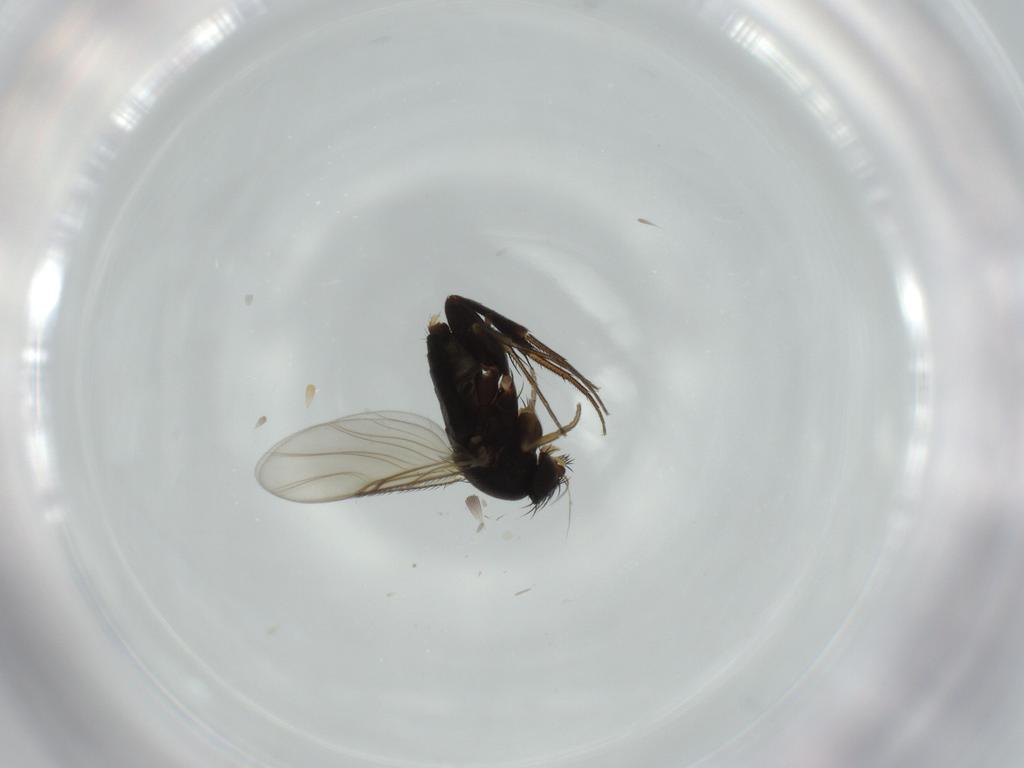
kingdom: Animalia
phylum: Arthropoda
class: Insecta
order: Diptera
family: Phoridae
